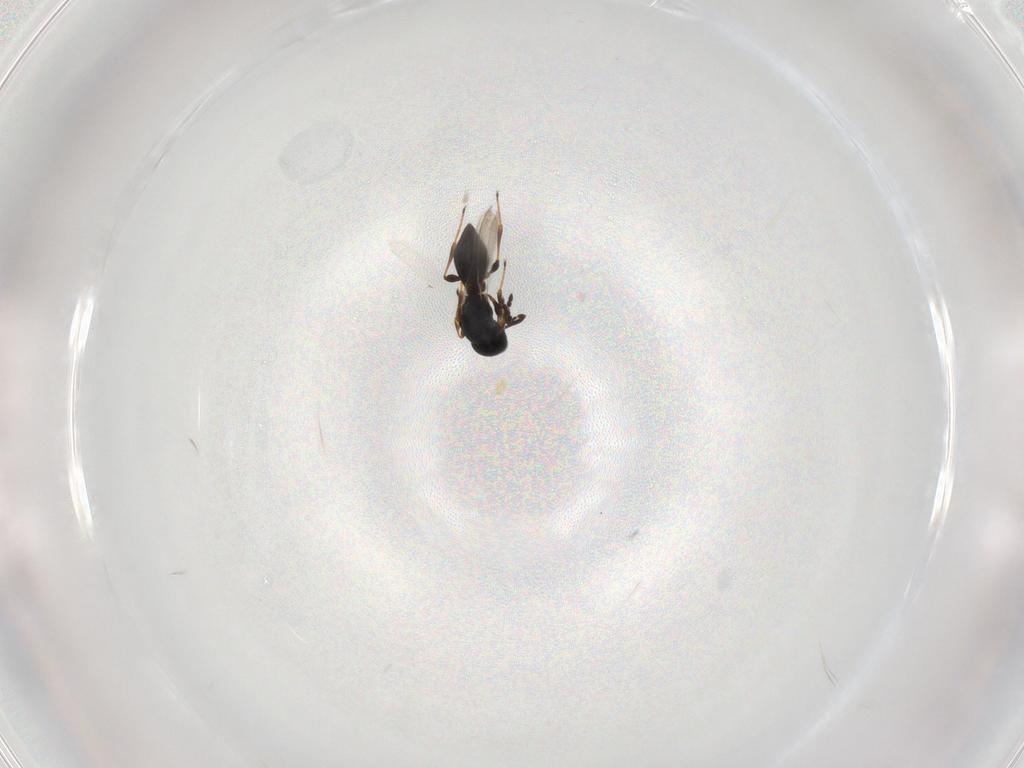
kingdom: Animalia
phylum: Arthropoda
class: Insecta
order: Hymenoptera
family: Platygastridae
